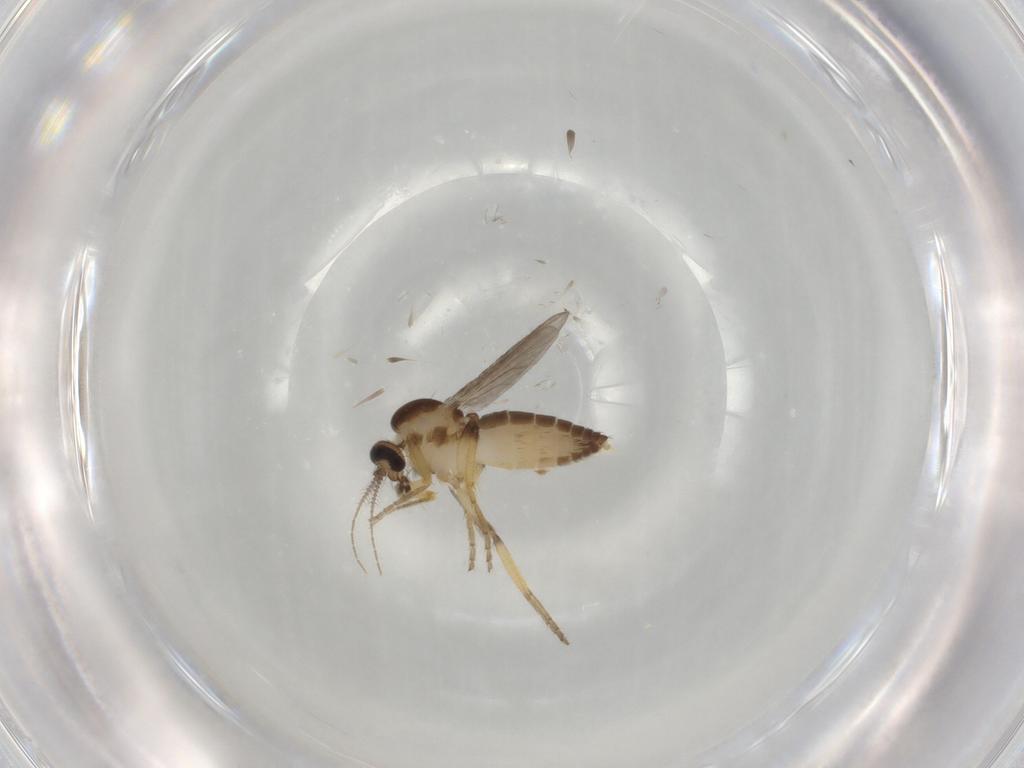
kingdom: Animalia
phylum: Arthropoda
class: Insecta
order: Diptera
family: Ceratopogonidae
